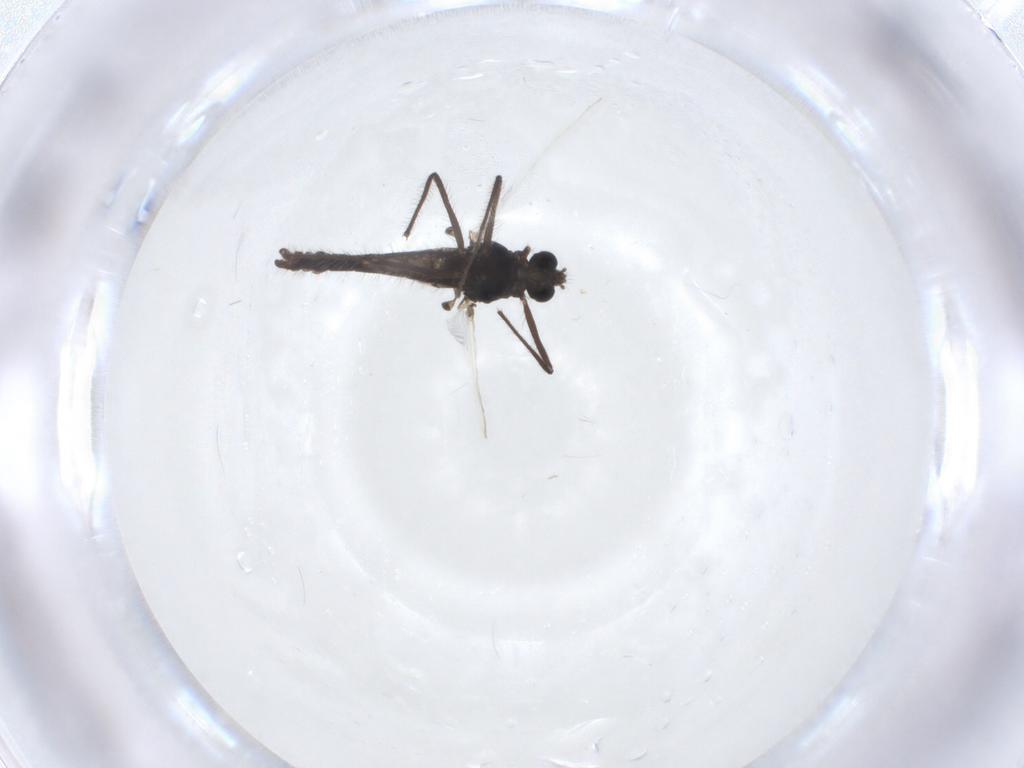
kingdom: Animalia
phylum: Arthropoda
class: Insecta
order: Diptera
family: Chironomidae
